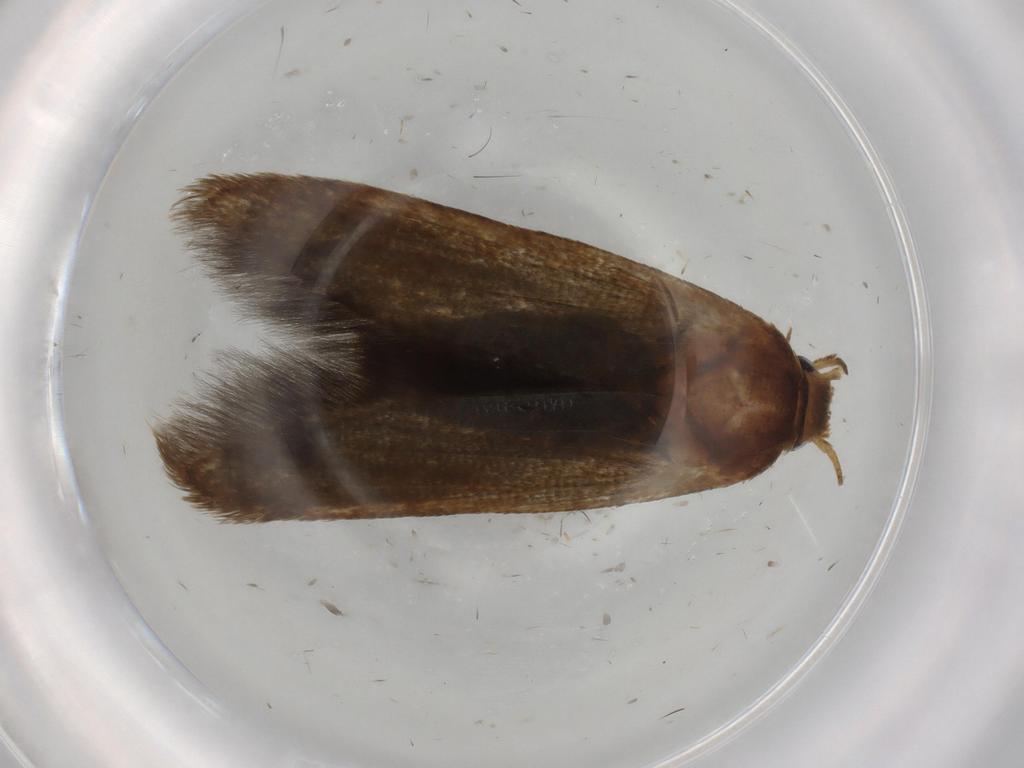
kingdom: Animalia
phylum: Arthropoda
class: Insecta
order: Lepidoptera
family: Blastobasidae
